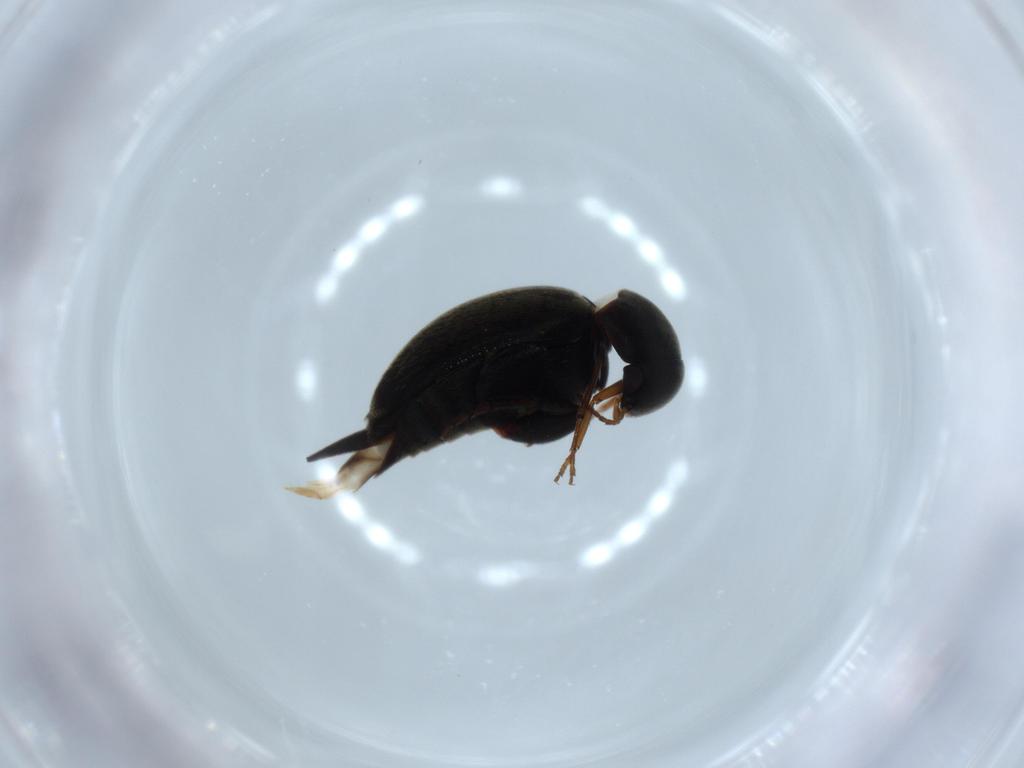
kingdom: Animalia
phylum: Arthropoda
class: Insecta
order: Coleoptera
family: Mordellidae
